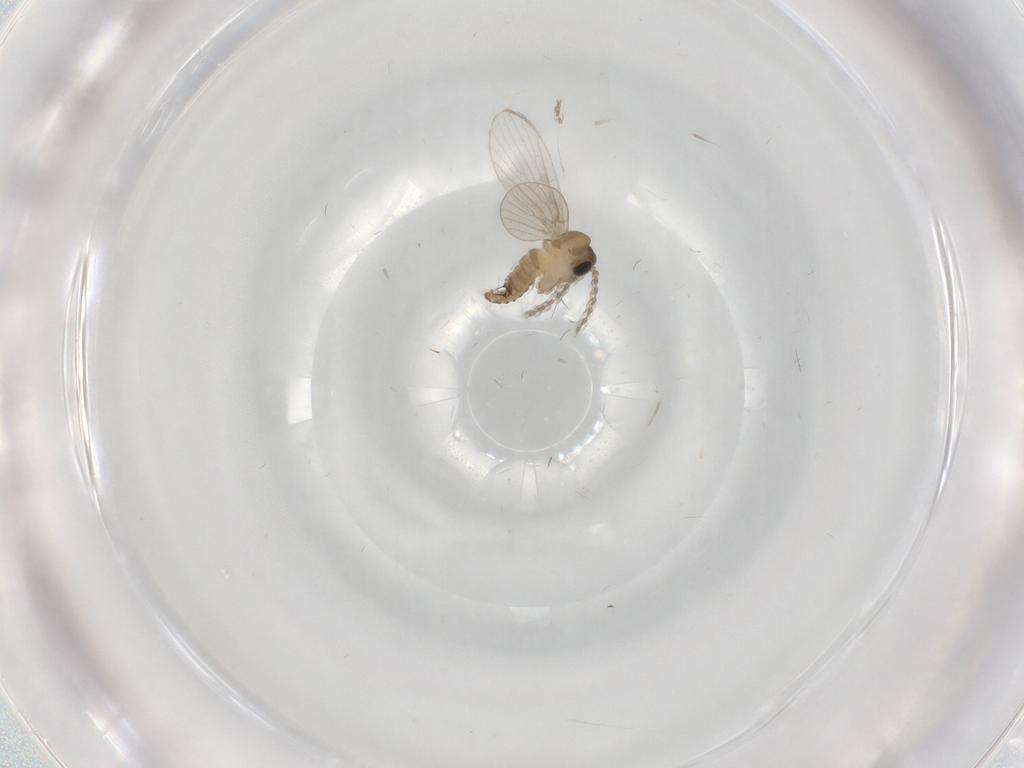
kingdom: Animalia
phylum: Arthropoda
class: Insecta
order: Diptera
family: Psychodidae
